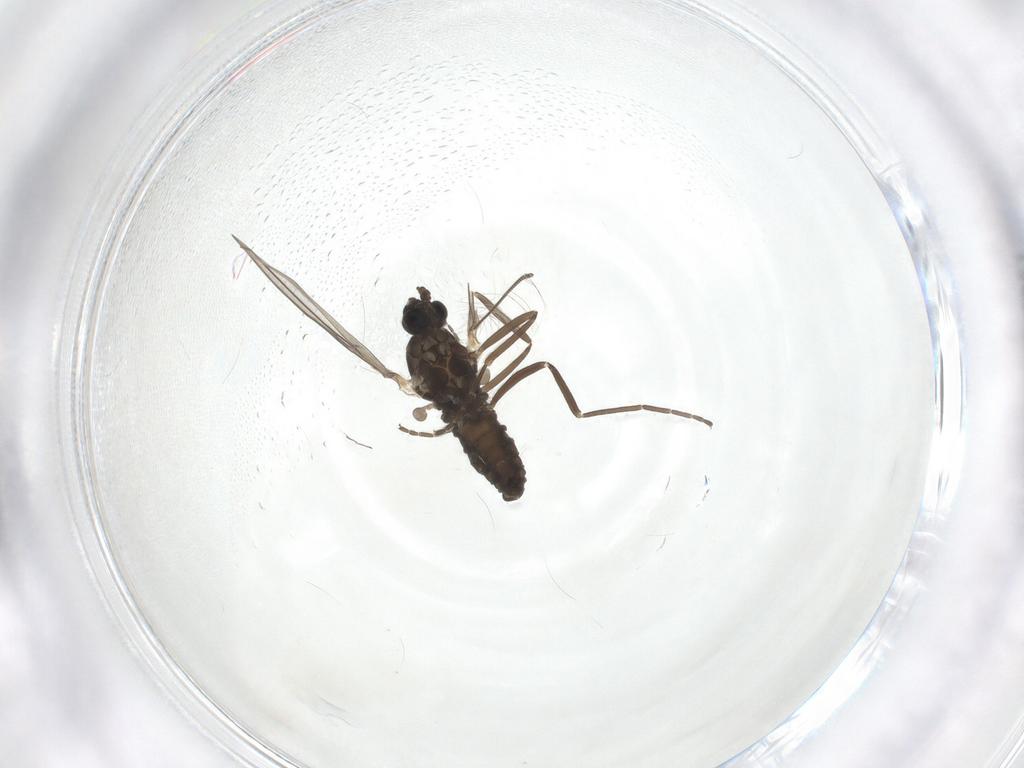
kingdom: Animalia
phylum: Arthropoda
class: Insecta
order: Diptera
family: Cecidomyiidae
